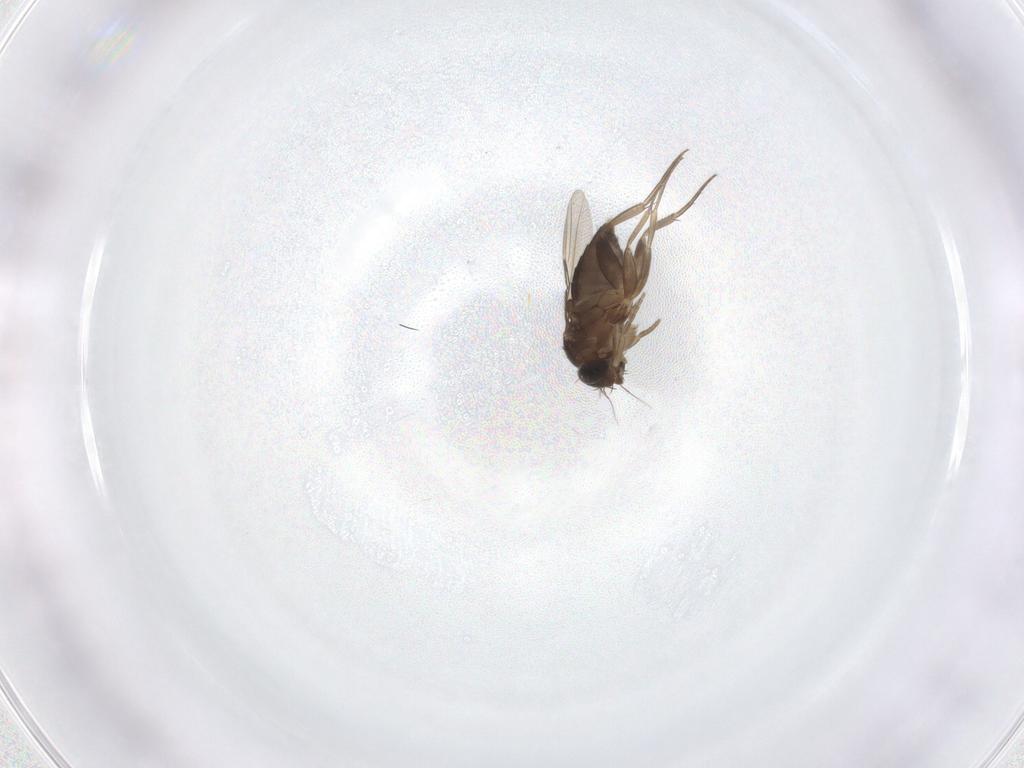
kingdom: Animalia
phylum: Arthropoda
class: Insecta
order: Diptera
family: Phoridae
